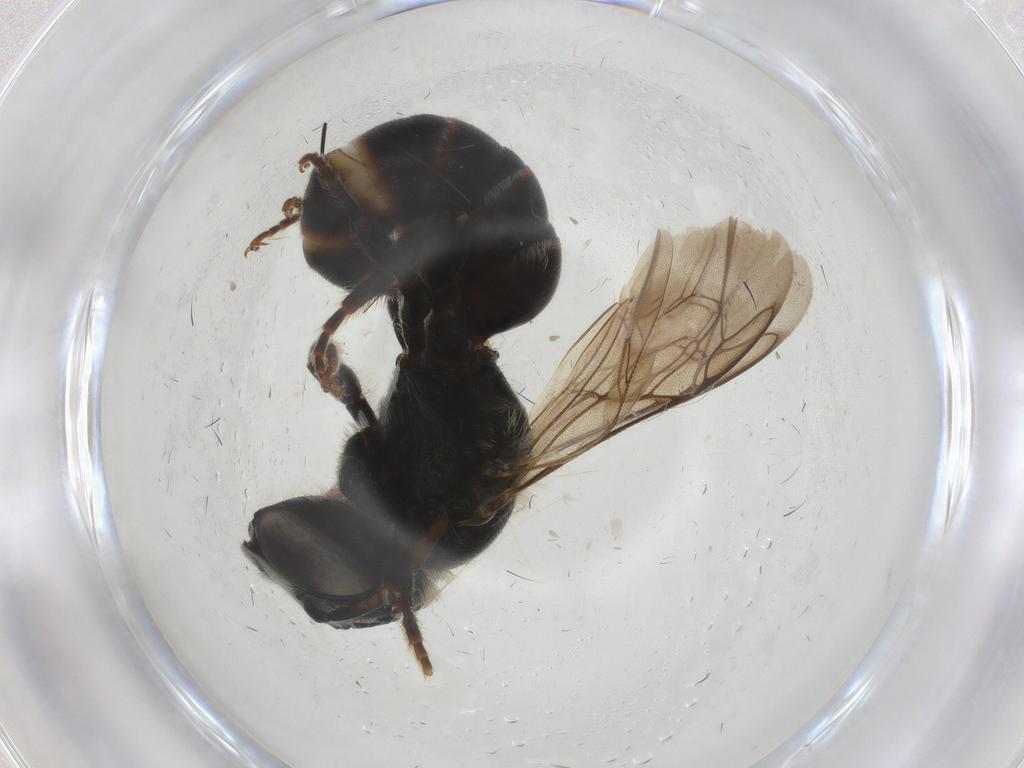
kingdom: Animalia
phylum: Arthropoda
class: Insecta
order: Hymenoptera
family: Megachilidae
